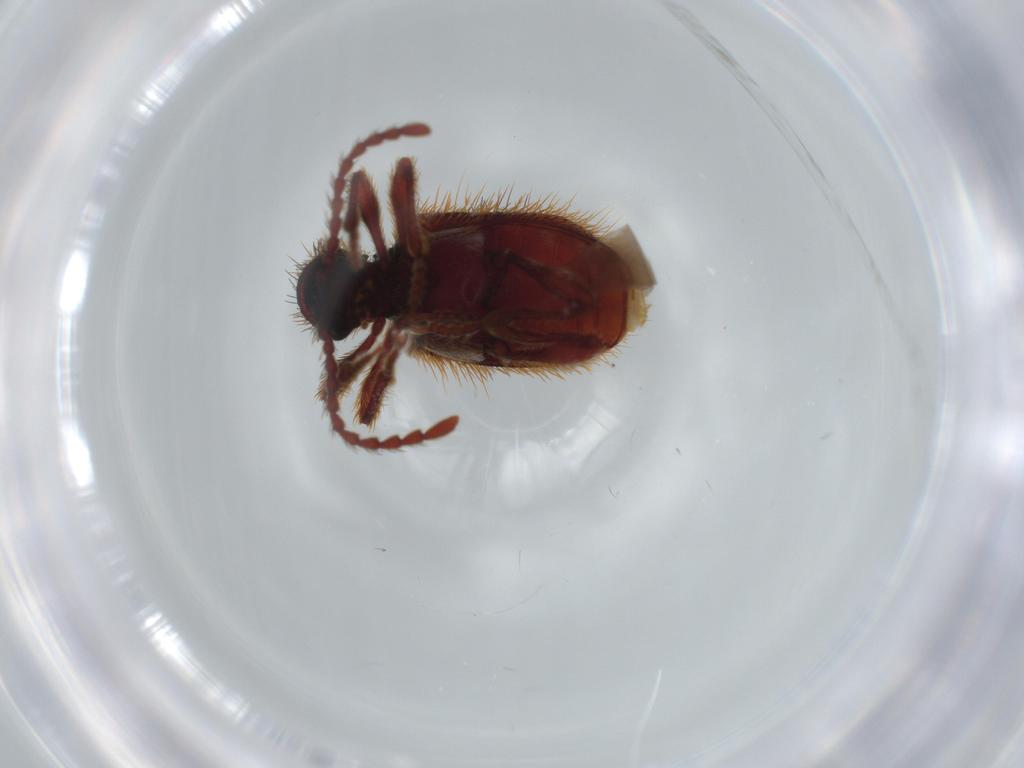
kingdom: Animalia
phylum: Arthropoda
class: Insecta
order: Coleoptera
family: Ptinidae
